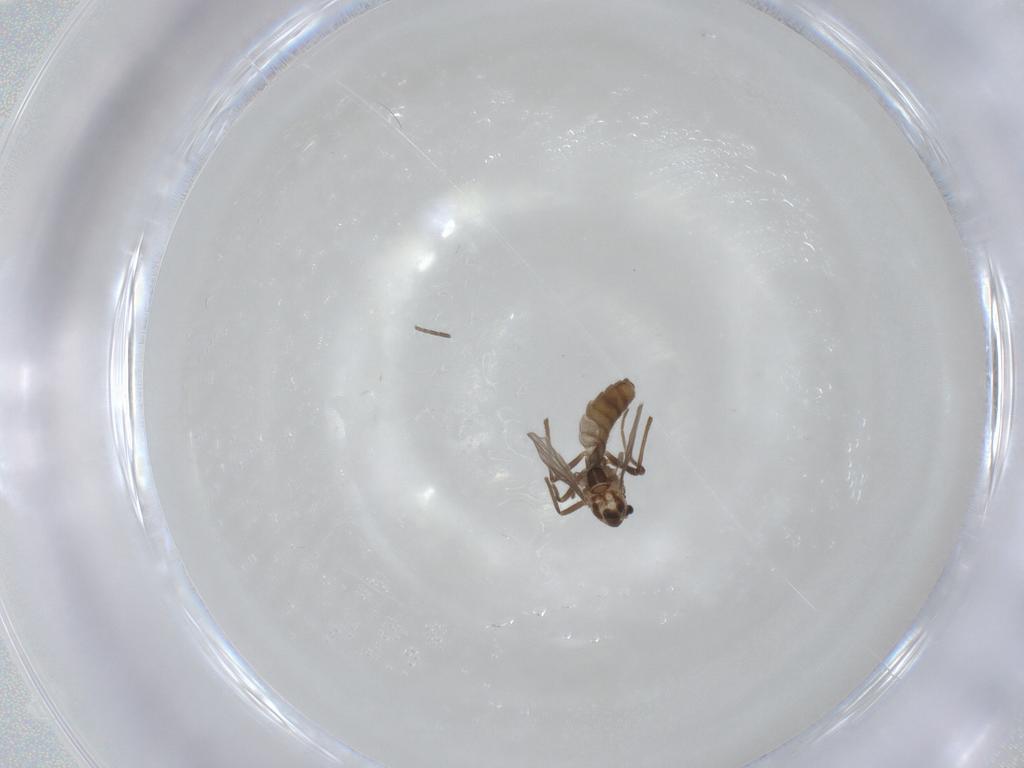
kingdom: Animalia
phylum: Arthropoda
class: Insecta
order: Diptera
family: Chironomidae
